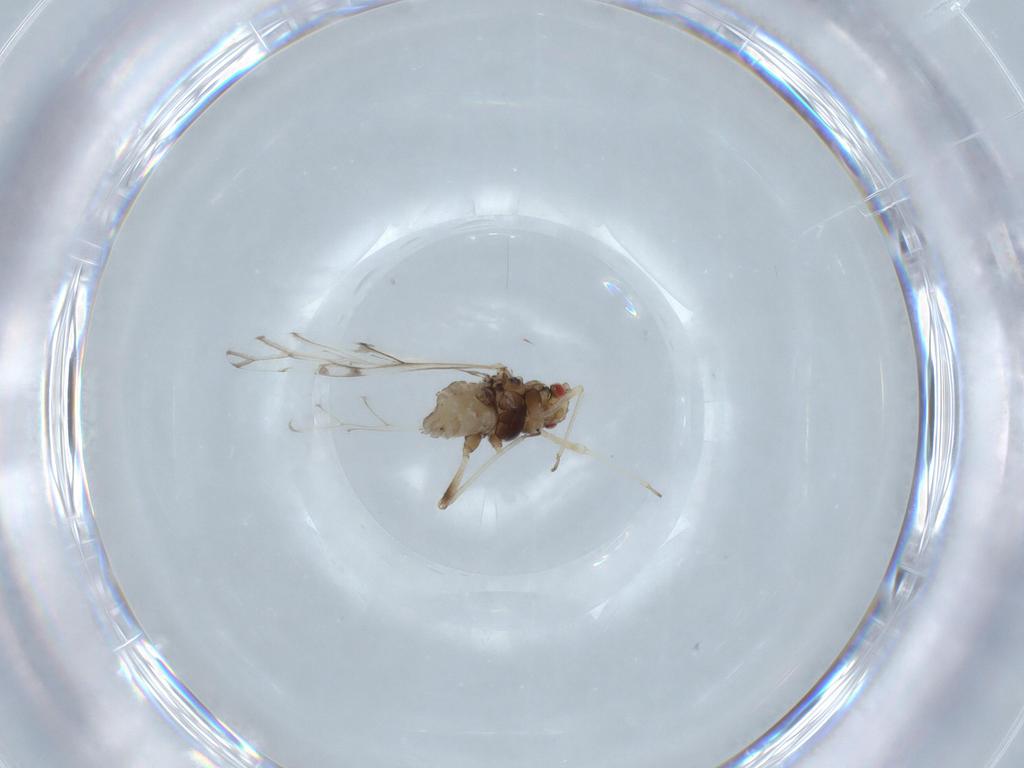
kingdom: Animalia
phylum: Arthropoda
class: Insecta
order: Hemiptera
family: Aphididae
